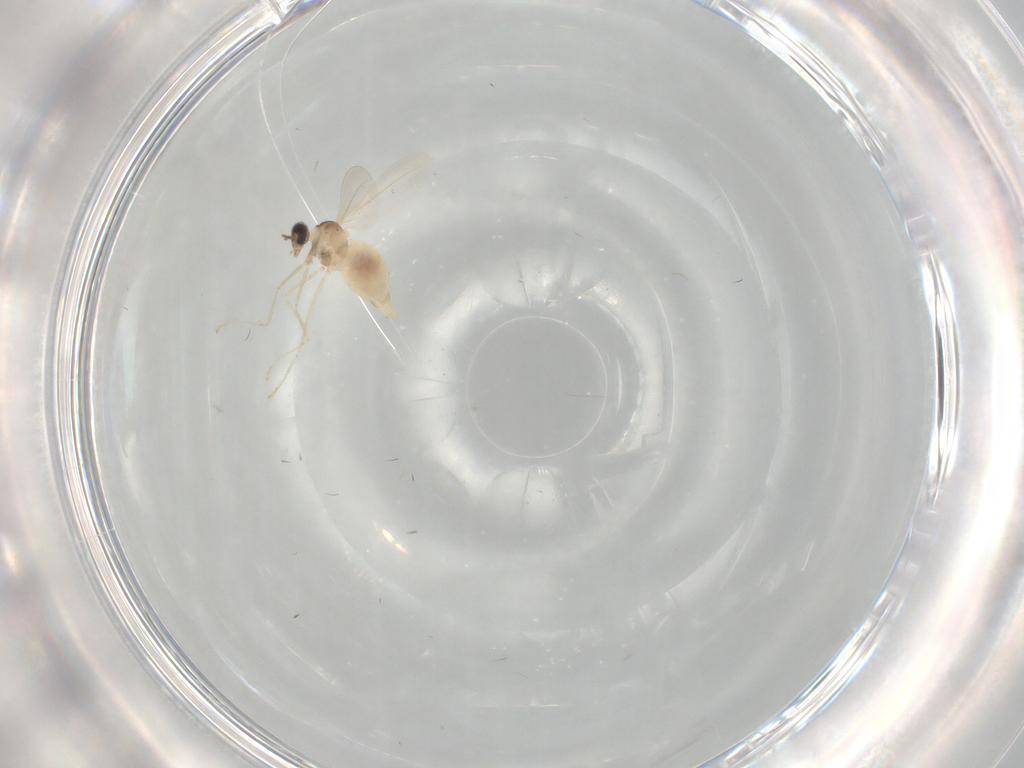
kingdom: Animalia
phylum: Arthropoda
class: Insecta
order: Diptera
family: Cecidomyiidae
